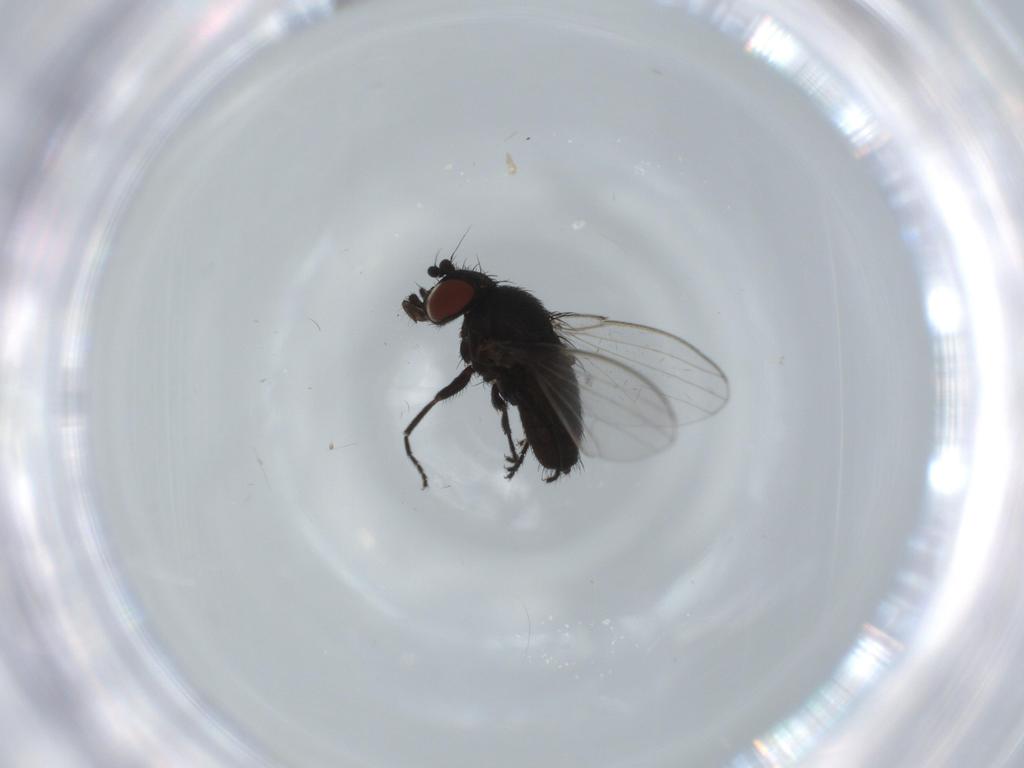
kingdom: Animalia
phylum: Arthropoda
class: Insecta
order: Diptera
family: Milichiidae
